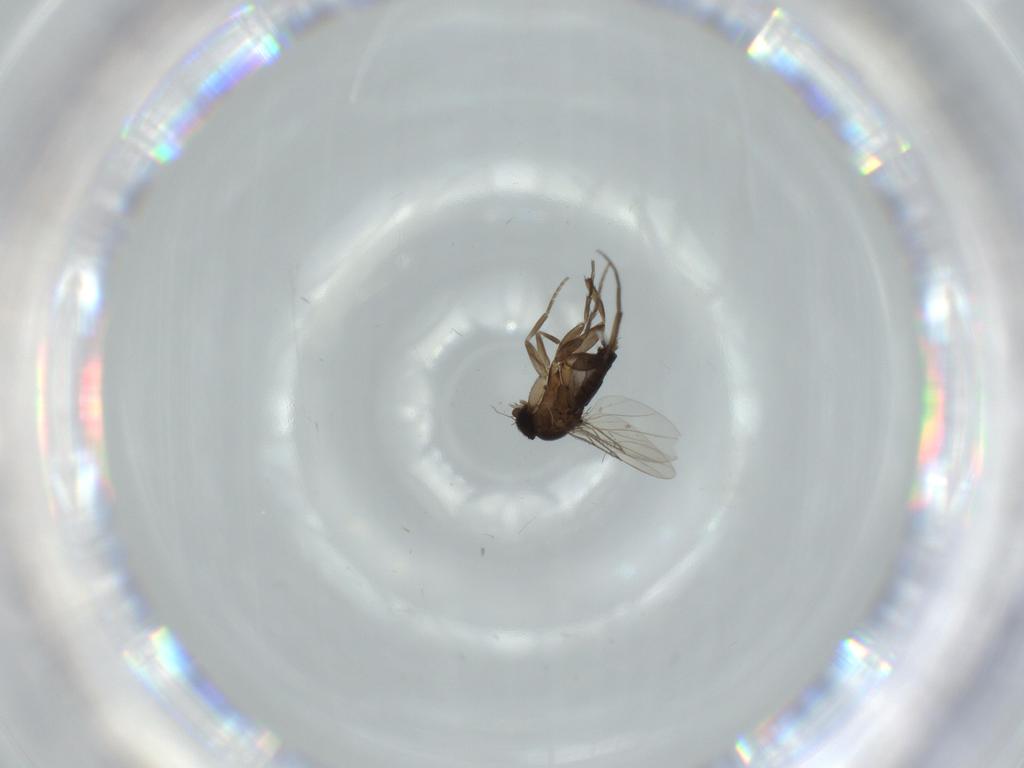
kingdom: Animalia
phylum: Arthropoda
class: Insecta
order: Diptera
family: Phoridae
